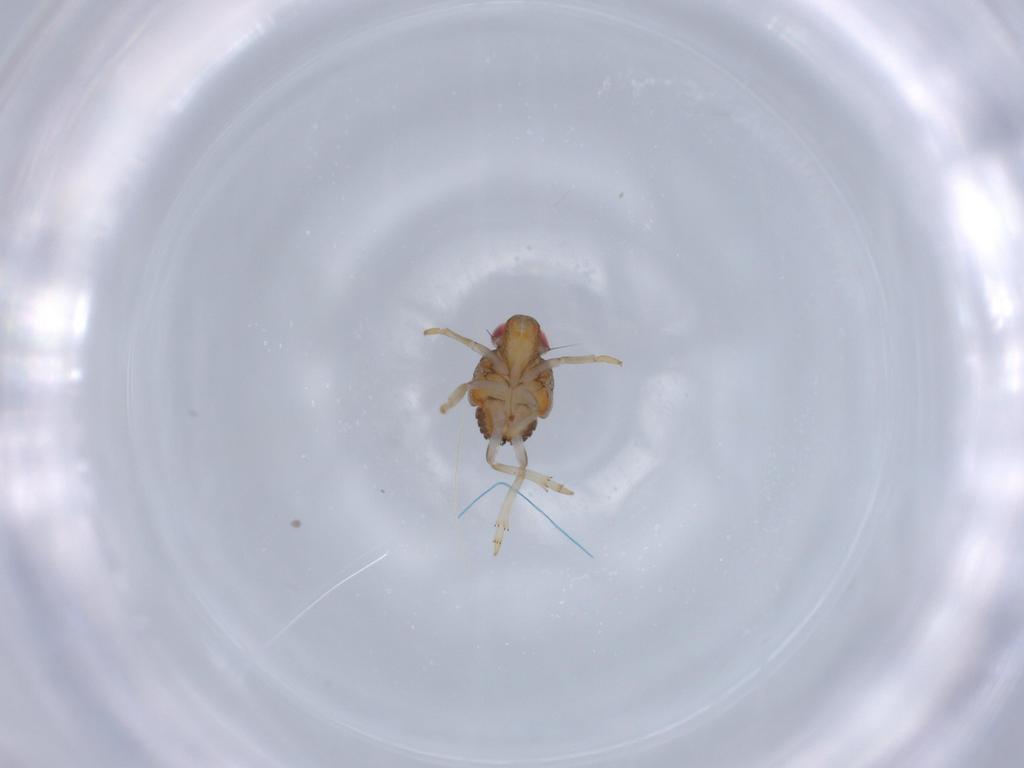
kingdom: Animalia
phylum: Arthropoda
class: Insecta
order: Hemiptera
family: Issidae
